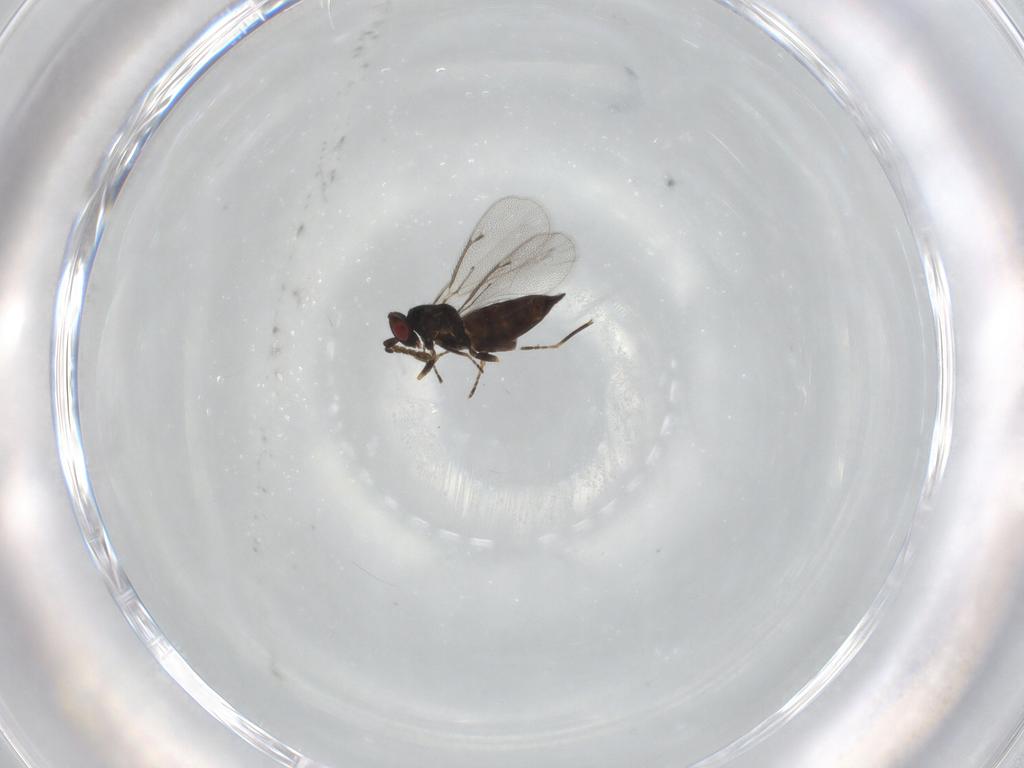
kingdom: Animalia
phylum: Arthropoda
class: Insecta
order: Hymenoptera
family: Eulophidae
